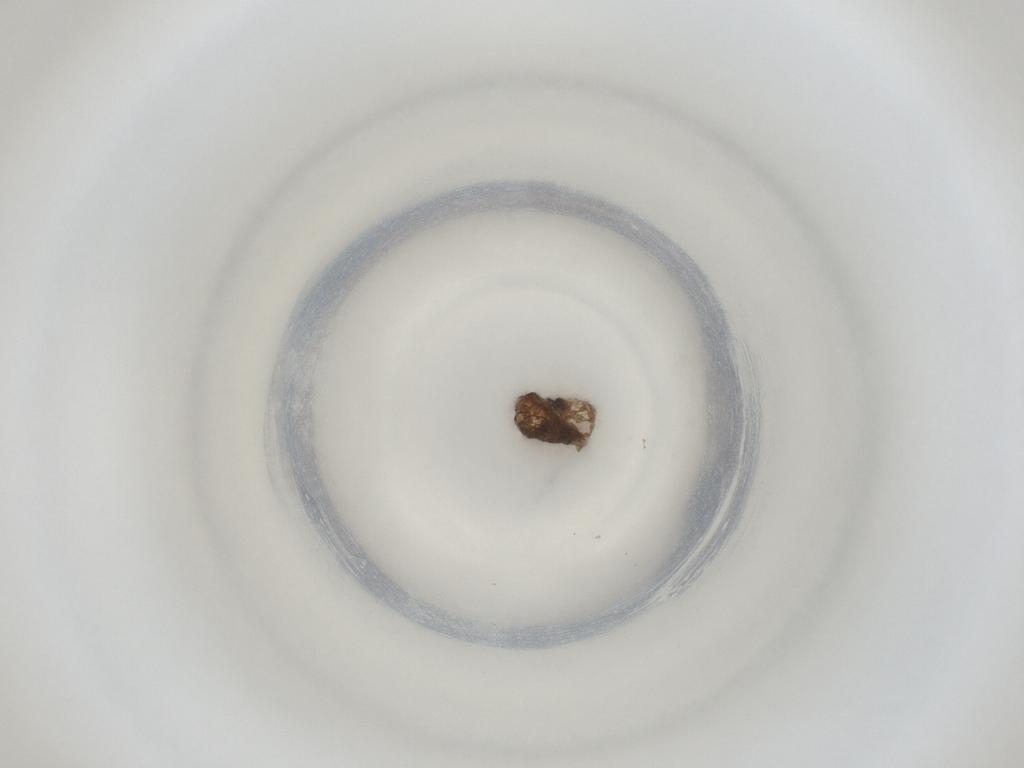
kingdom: Animalia
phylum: Arthropoda
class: Insecta
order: Diptera
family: Cecidomyiidae
